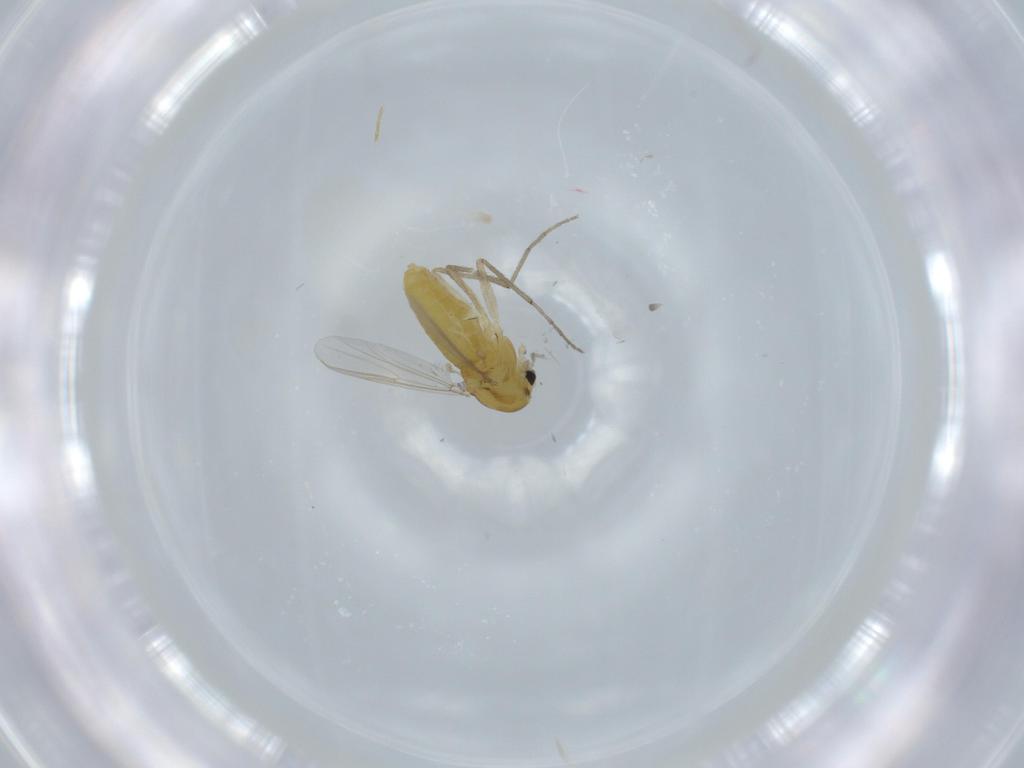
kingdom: Animalia
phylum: Arthropoda
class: Insecta
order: Diptera
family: Chironomidae
